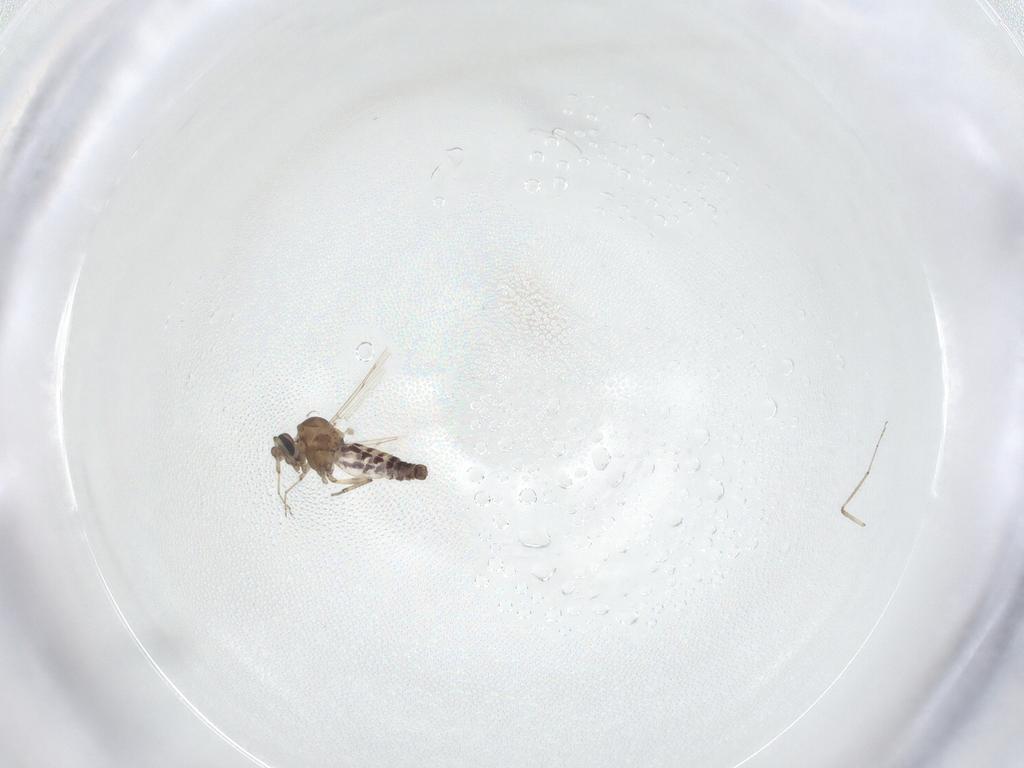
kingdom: Animalia
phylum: Arthropoda
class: Insecta
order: Diptera
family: Ceratopogonidae
